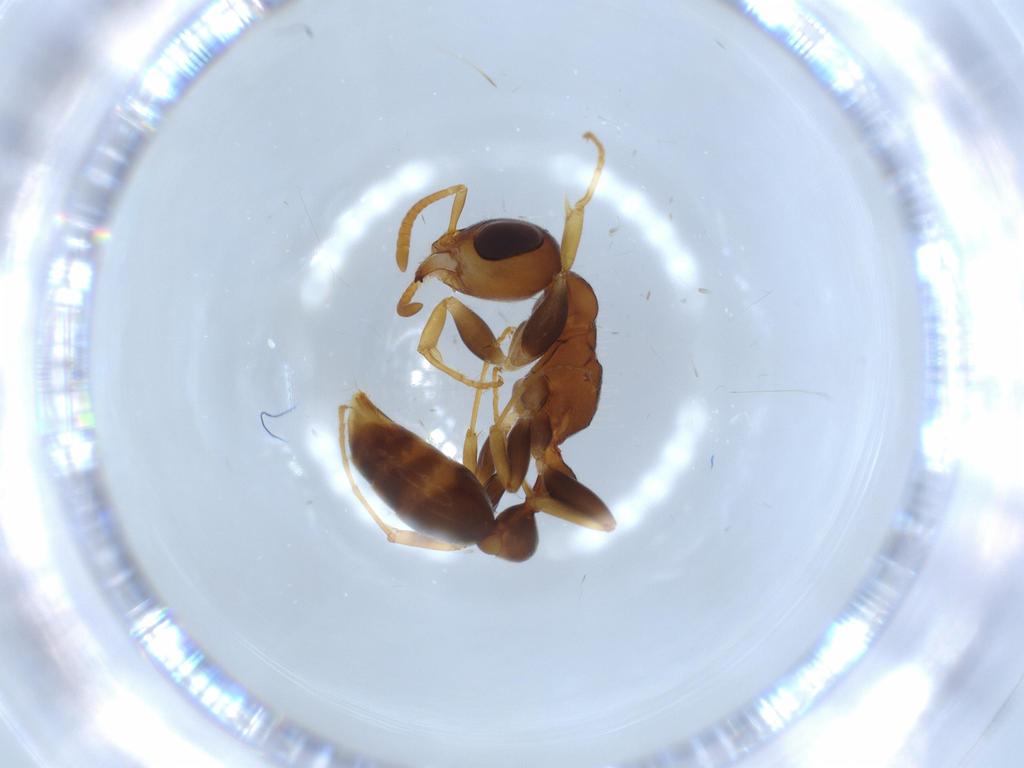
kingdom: Animalia
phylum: Arthropoda
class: Insecta
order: Hymenoptera
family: Formicidae
